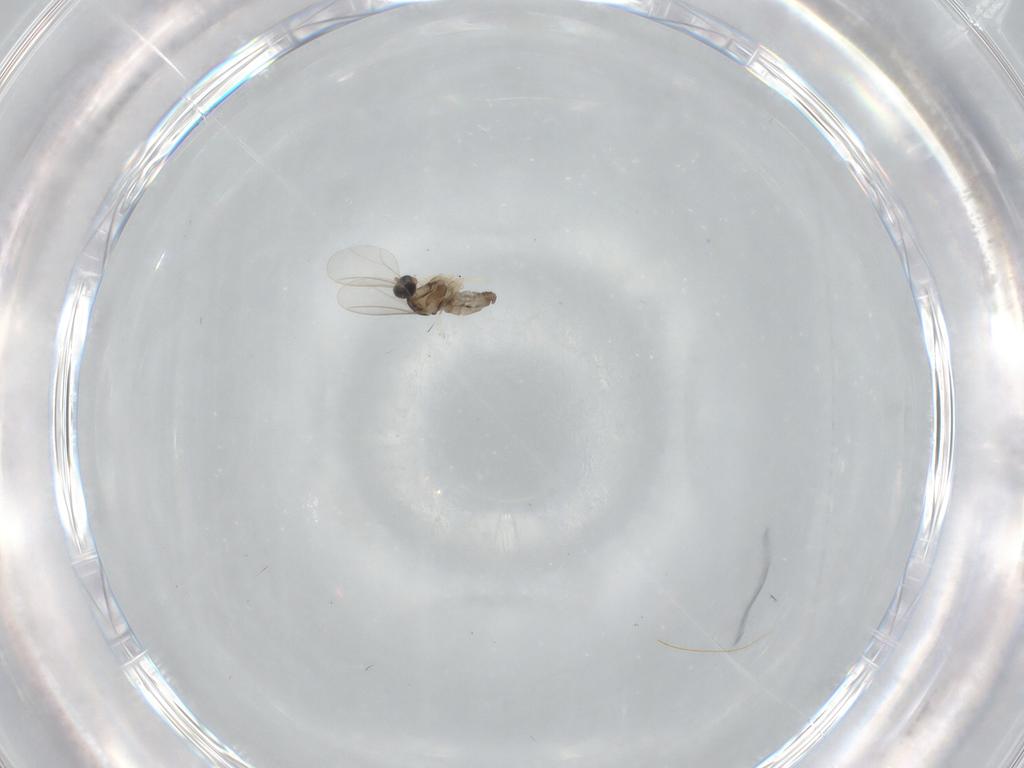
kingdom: Animalia
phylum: Arthropoda
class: Insecta
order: Diptera
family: Cecidomyiidae
